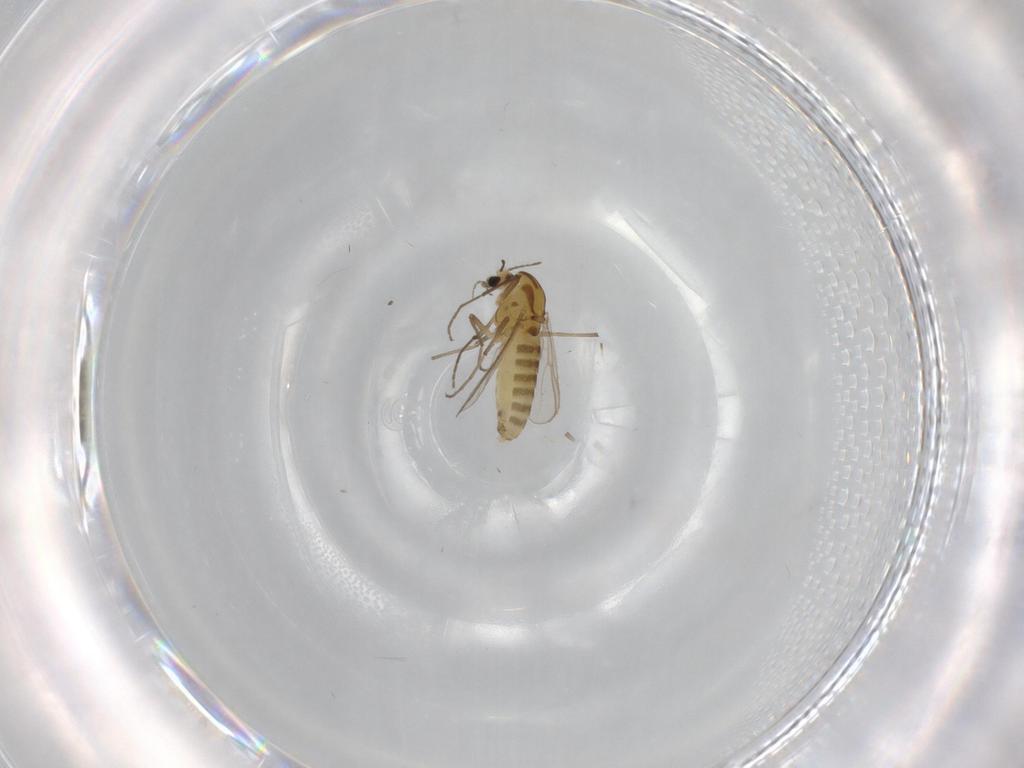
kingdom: Animalia
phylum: Arthropoda
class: Insecta
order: Diptera
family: Chironomidae
